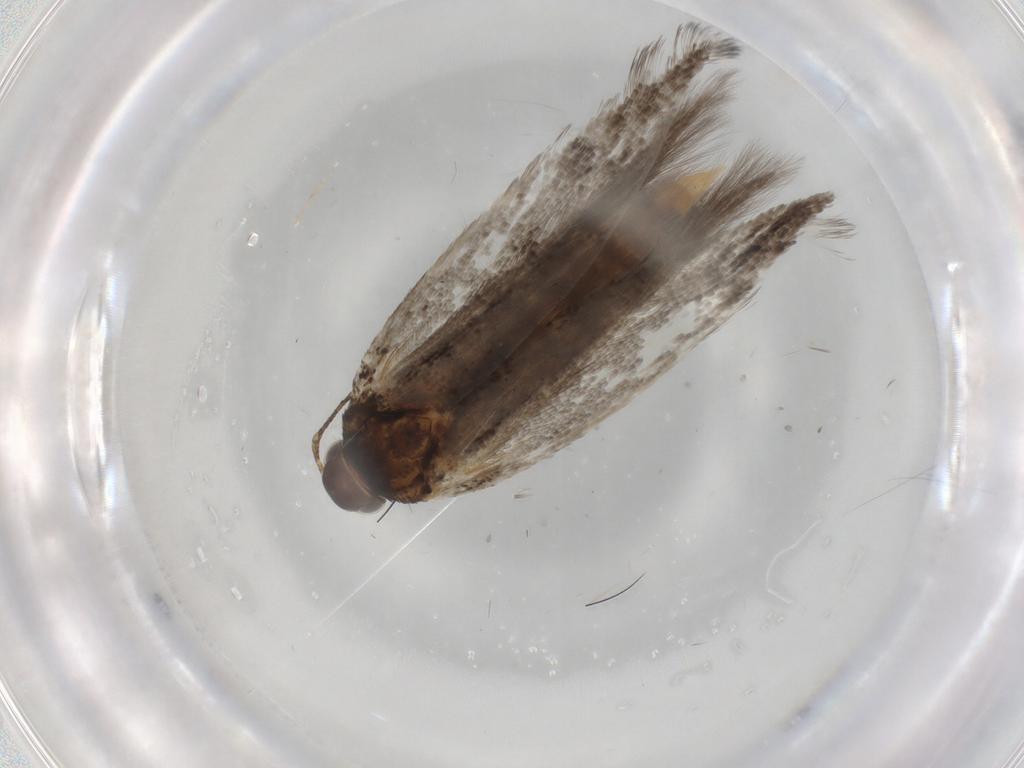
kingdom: Animalia
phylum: Arthropoda
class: Insecta
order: Lepidoptera
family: Gelechiidae
